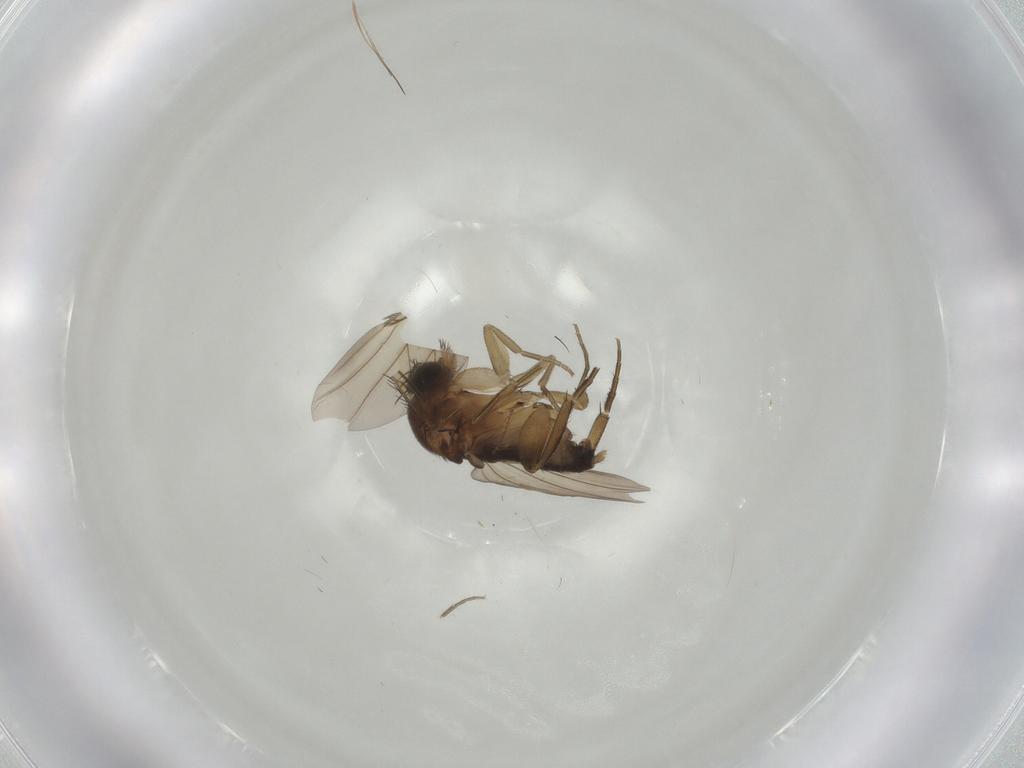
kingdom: Animalia
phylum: Arthropoda
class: Insecta
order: Diptera
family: Phoridae
